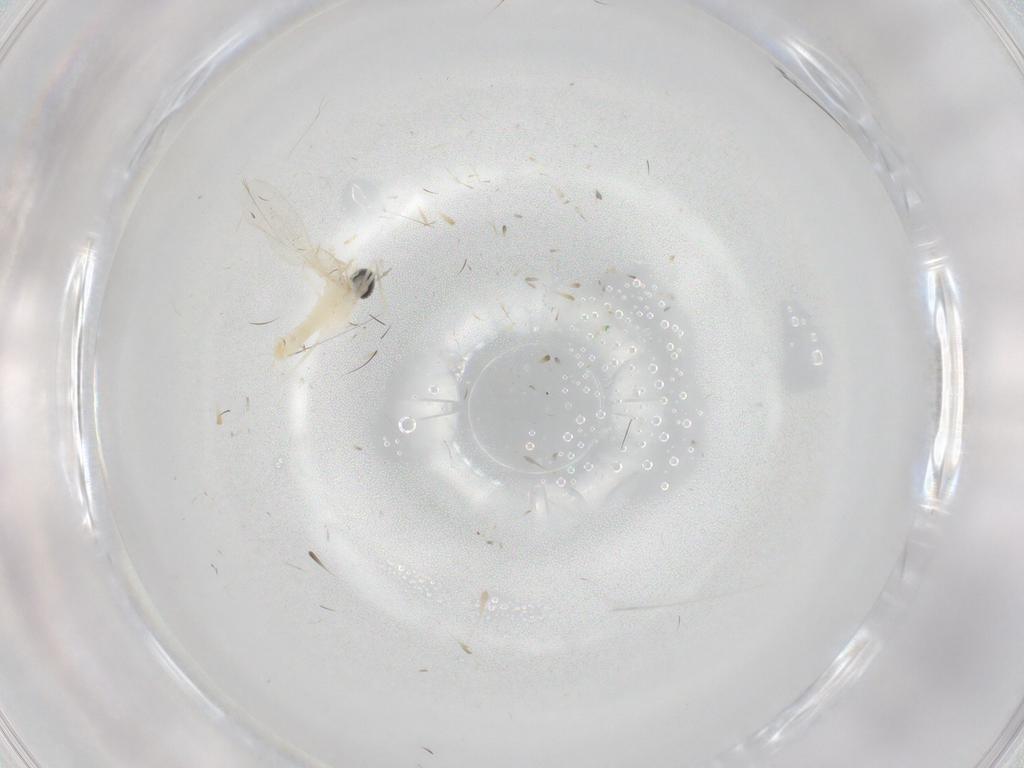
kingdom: Animalia
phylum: Arthropoda
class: Insecta
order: Diptera
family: Cecidomyiidae
